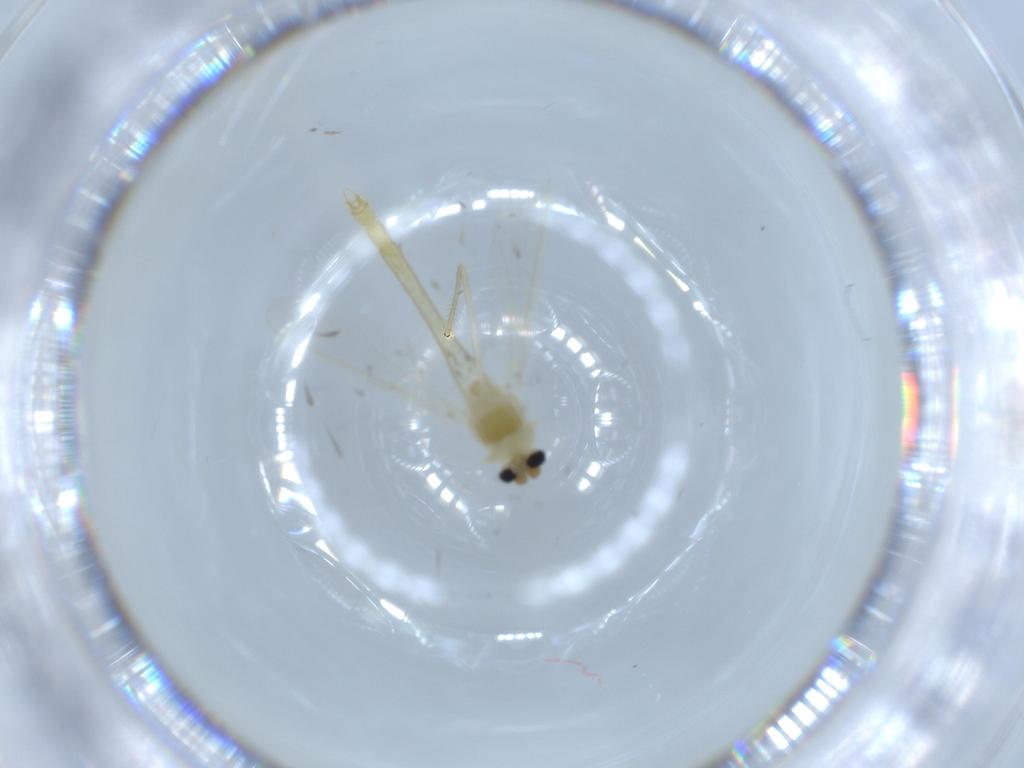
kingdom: Animalia
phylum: Arthropoda
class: Insecta
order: Diptera
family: Chironomidae
